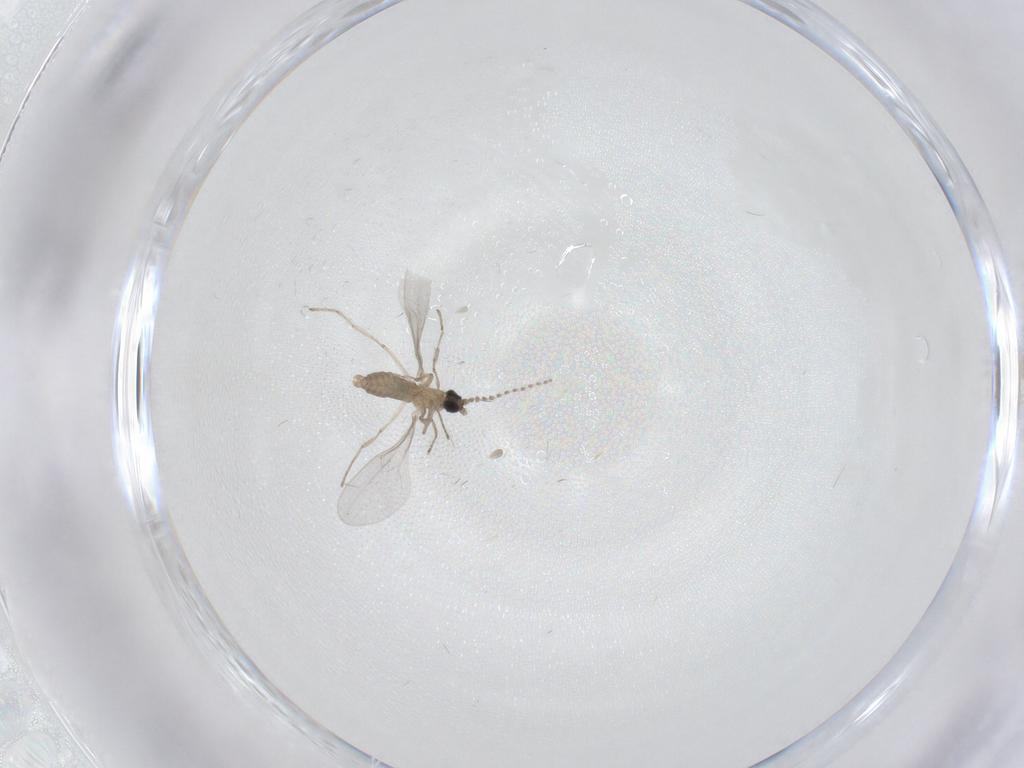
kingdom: Animalia
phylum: Arthropoda
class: Insecta
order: Diptera
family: Cecidomyiidae
